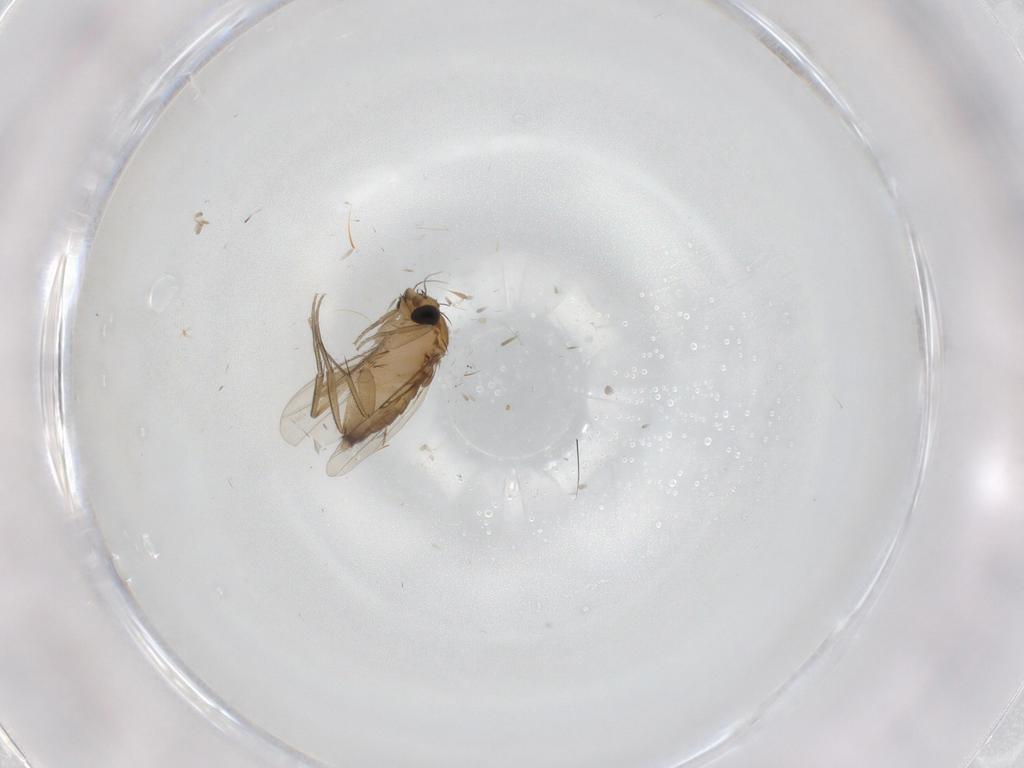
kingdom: Animalia
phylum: Arthropoda
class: Insecta
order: Diptera
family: Phoridae
